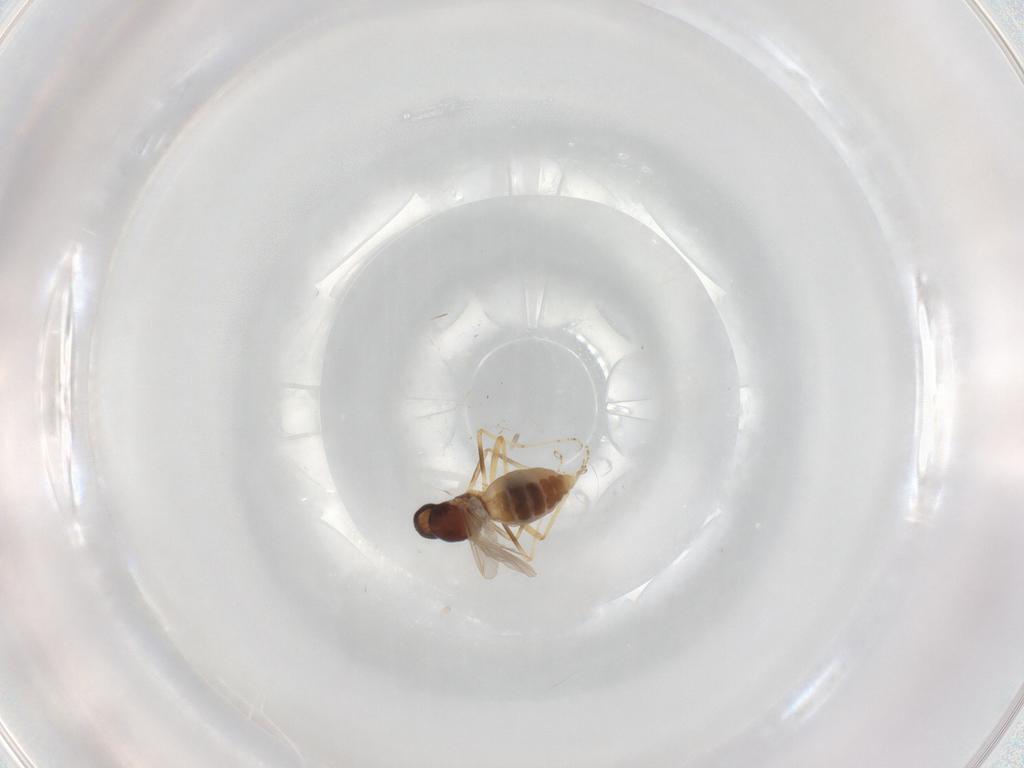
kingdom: Animalia
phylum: Arthropoda
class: Insecta
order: Diptera
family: Ceratopogonidae
